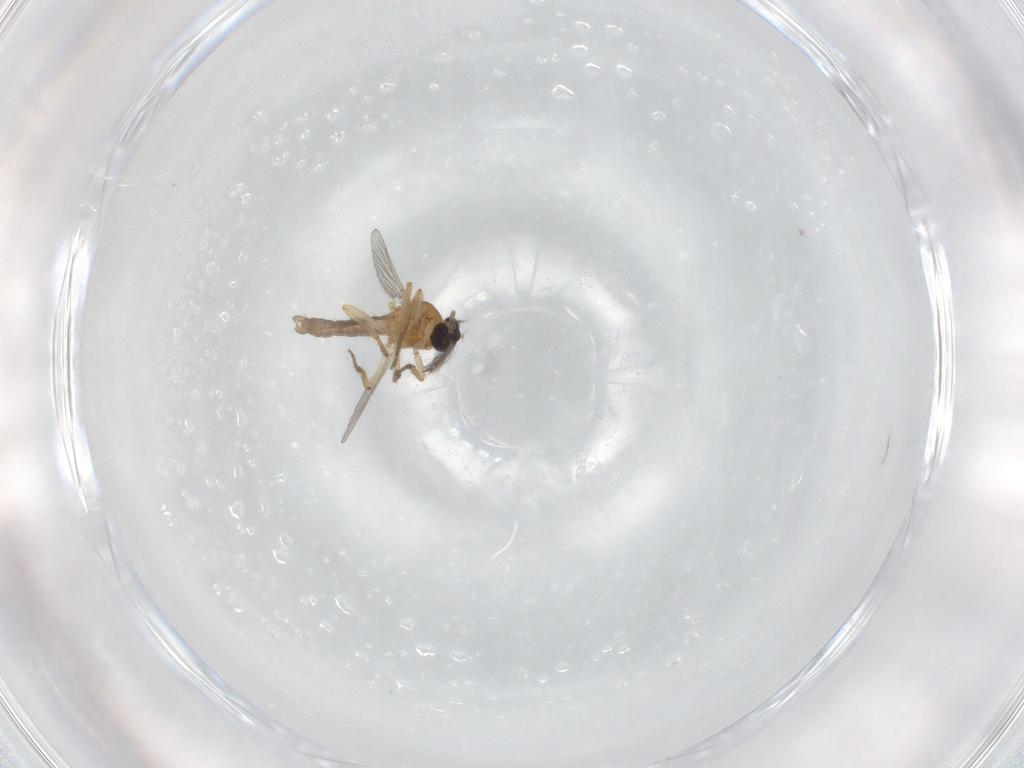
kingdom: Animalia
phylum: Arthropoda
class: Insecta
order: Diptera
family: Ceratopogonidae
